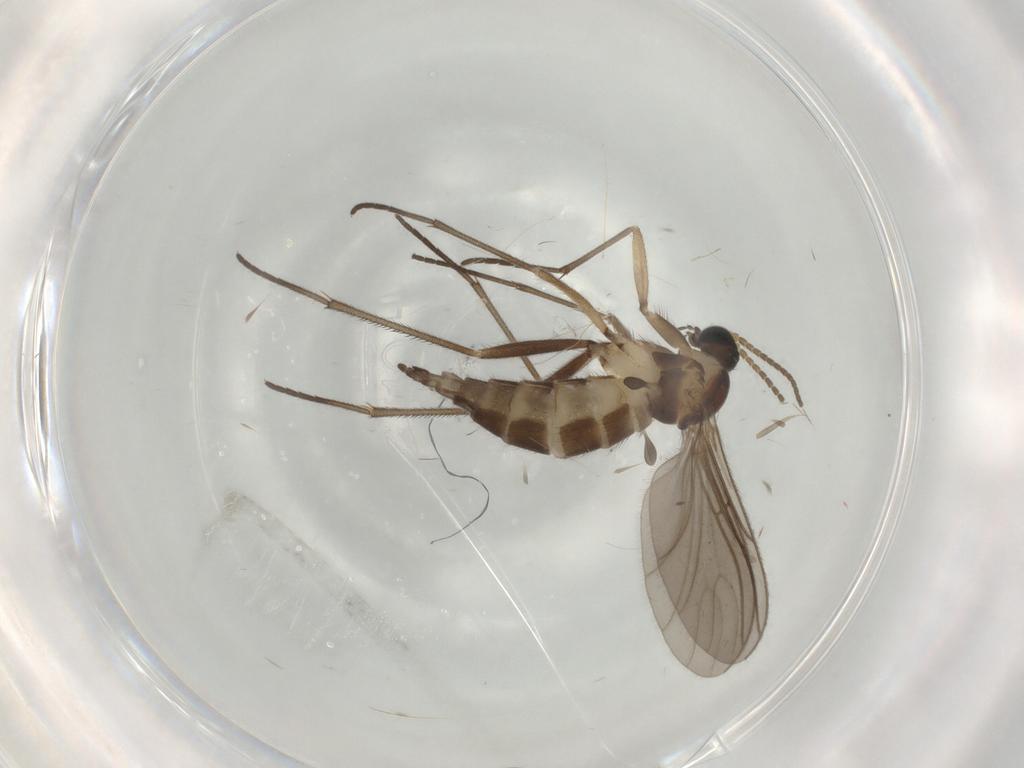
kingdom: Animalia
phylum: Arthropoda
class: Insecta
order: Diptera
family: Sciaridae
